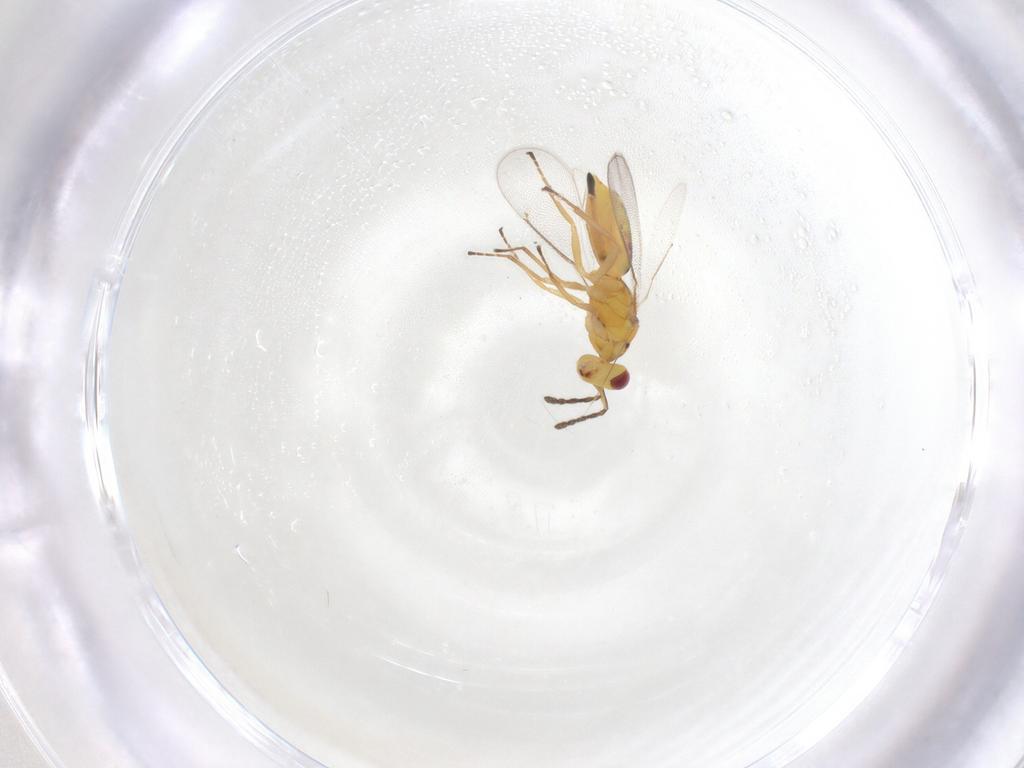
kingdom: Animalia
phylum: Arthropoda
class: Insecta
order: Hymenoptera
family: Eulophidae
